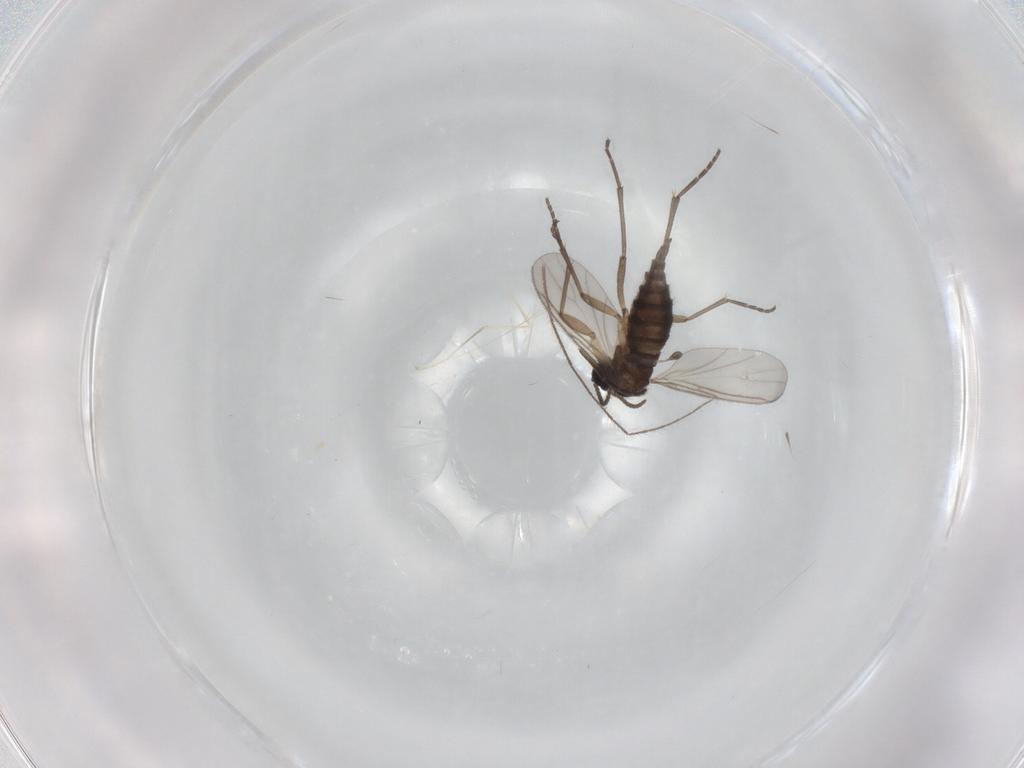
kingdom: Animalia
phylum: Arthropoda
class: Insecta
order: Diptera
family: Sciaridae
